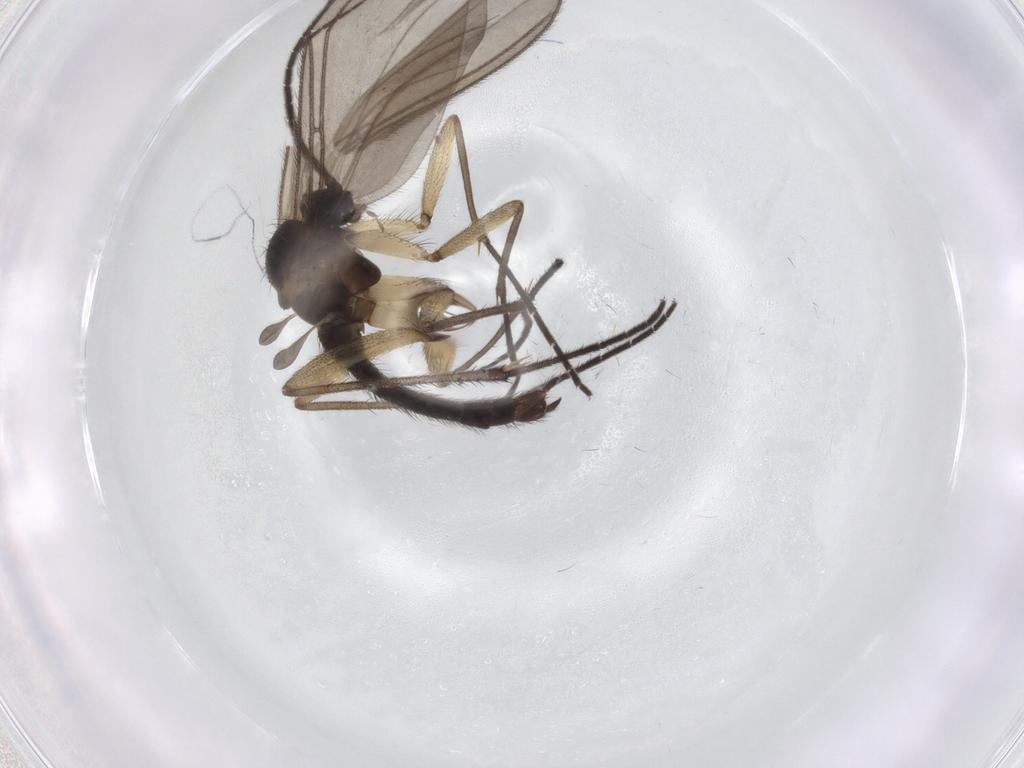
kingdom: Animalia
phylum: Arthropoda
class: Insecta
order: Diptera
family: Sciaridae
